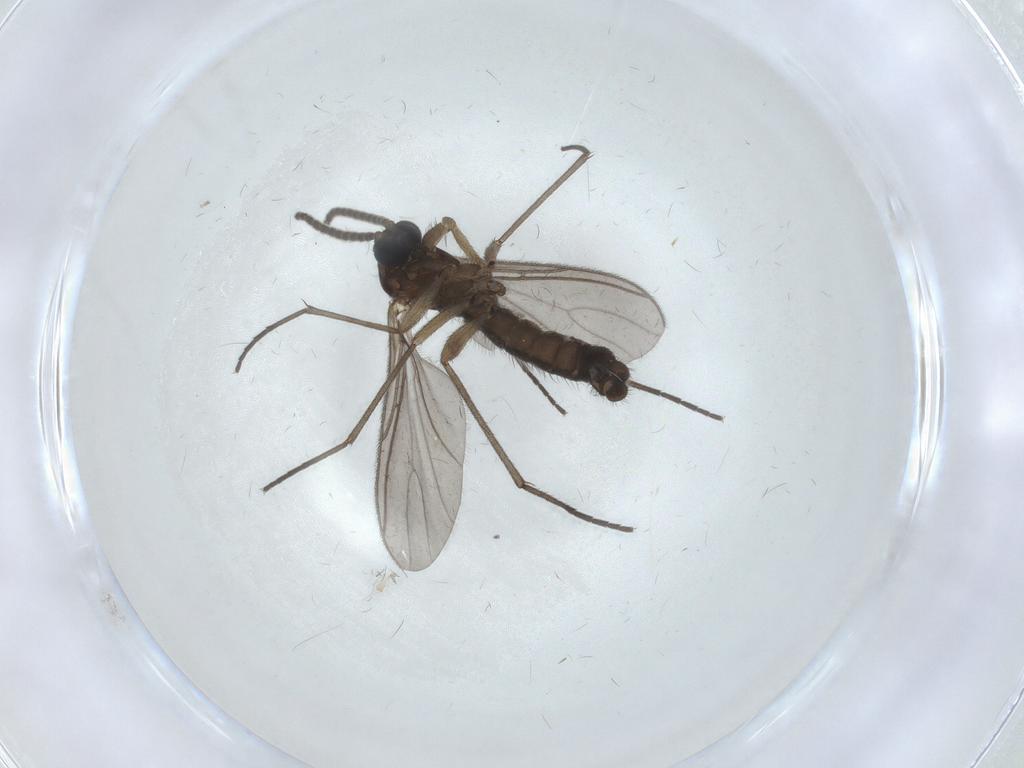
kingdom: Animalia
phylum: Arthropoda
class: Insecta
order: Diptera
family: Sciaridae
